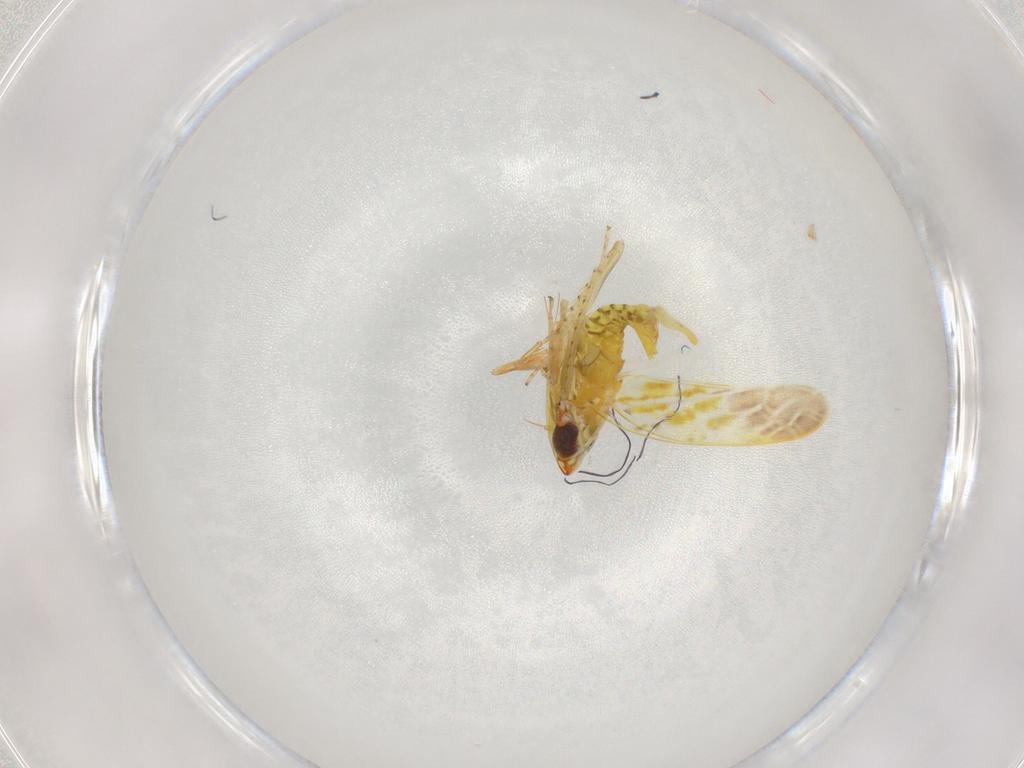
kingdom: Animalia
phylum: Arthropoda
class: Insecta
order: Hemiptera
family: Cicadellidae
